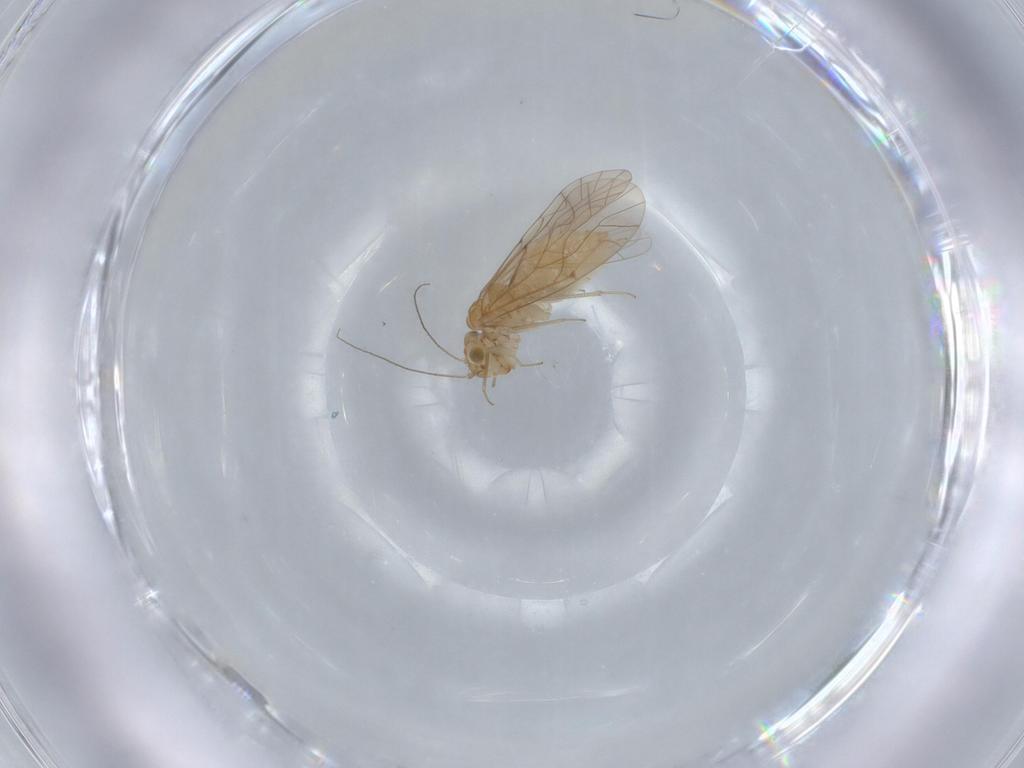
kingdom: Animalia
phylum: Arthropoda
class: Insecta
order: Psocodea
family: Lachesillidae
